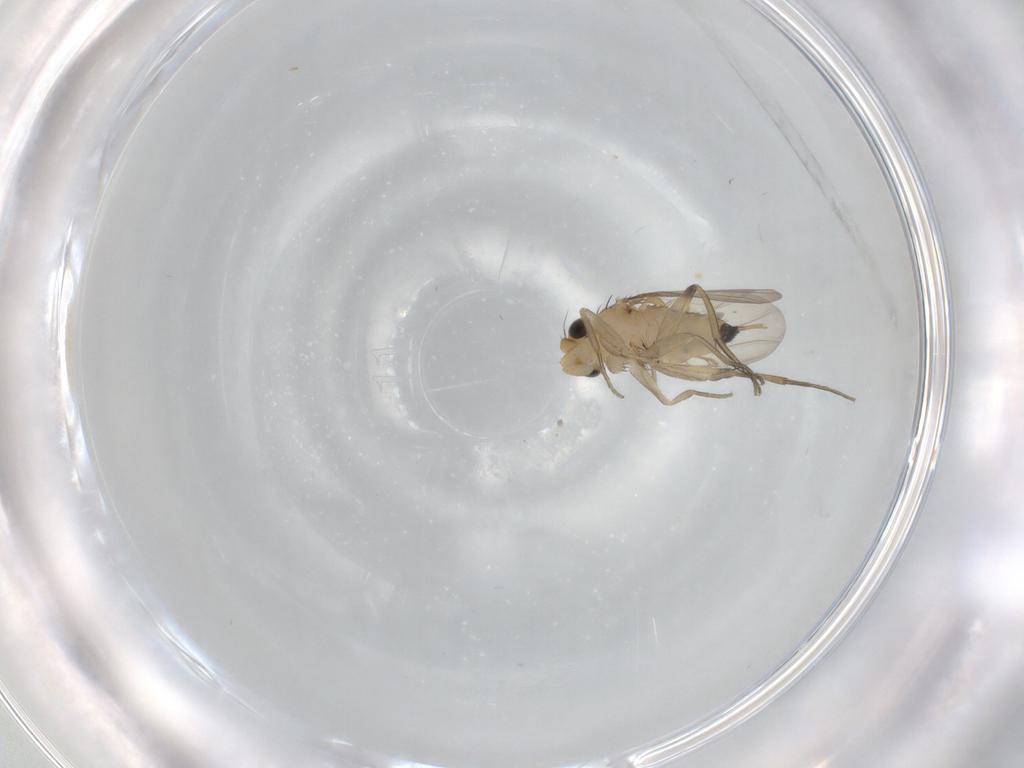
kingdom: Animalia
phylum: Arthropoda
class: Insecta
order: Diptera
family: Phoridae
